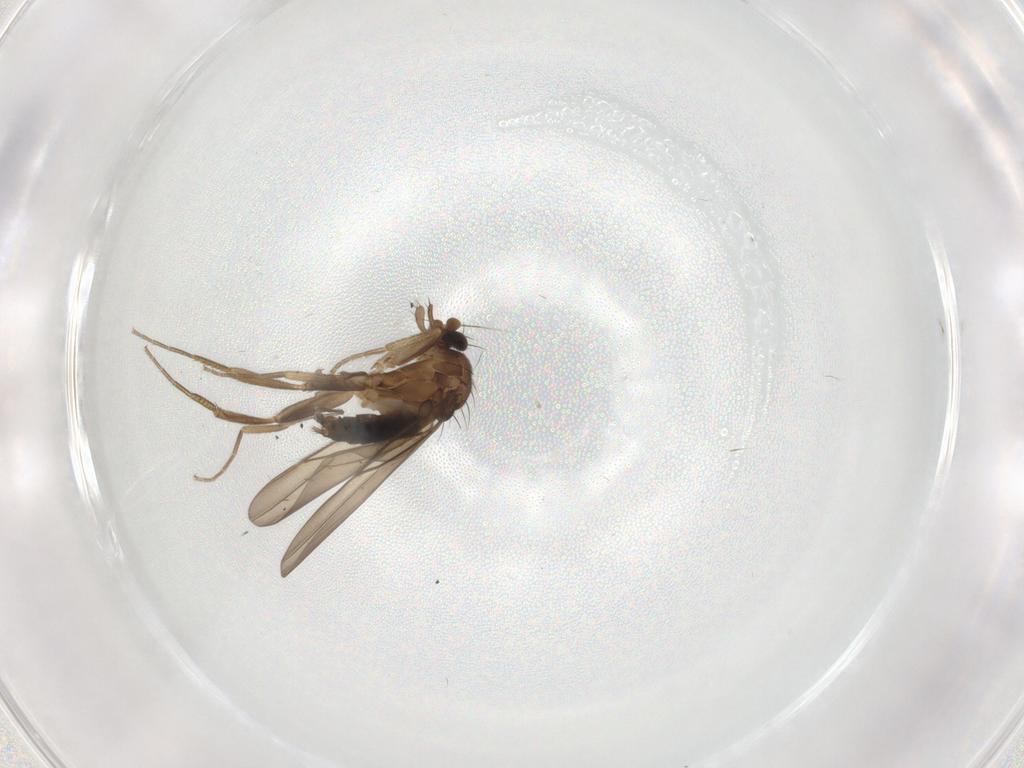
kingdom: Animalia
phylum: Arthropoda
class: Insecta
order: Diptera
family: Phoridae
